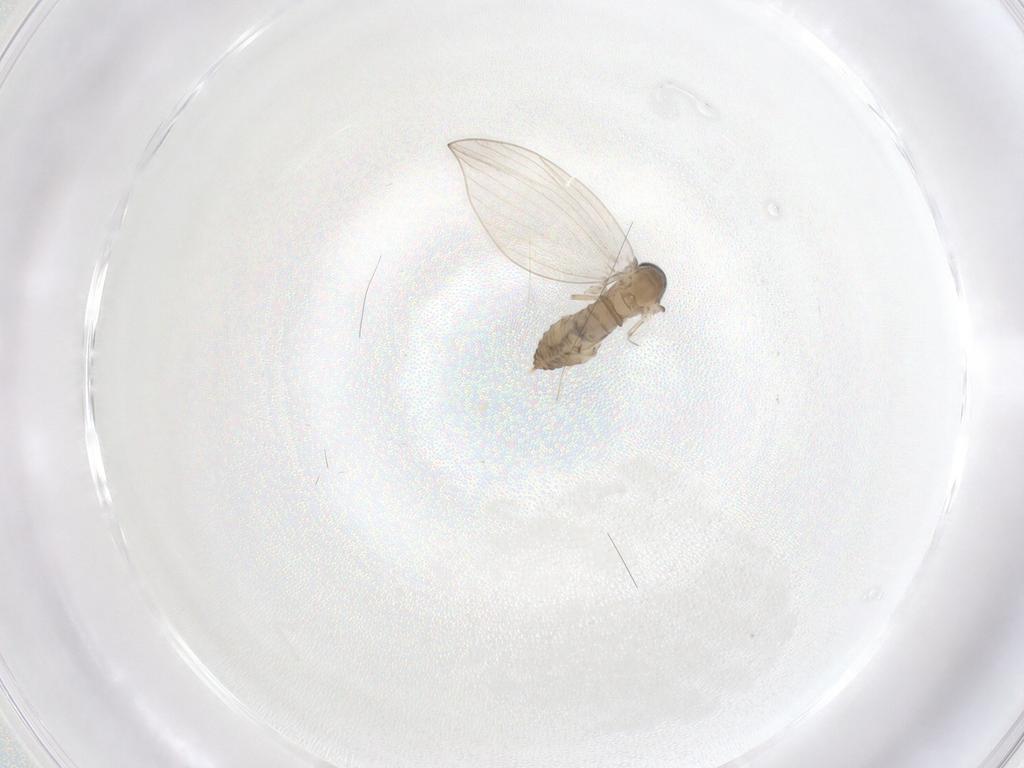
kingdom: Animalia
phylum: Arthropoda
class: Insecta
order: Diptera
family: Psychodidae
